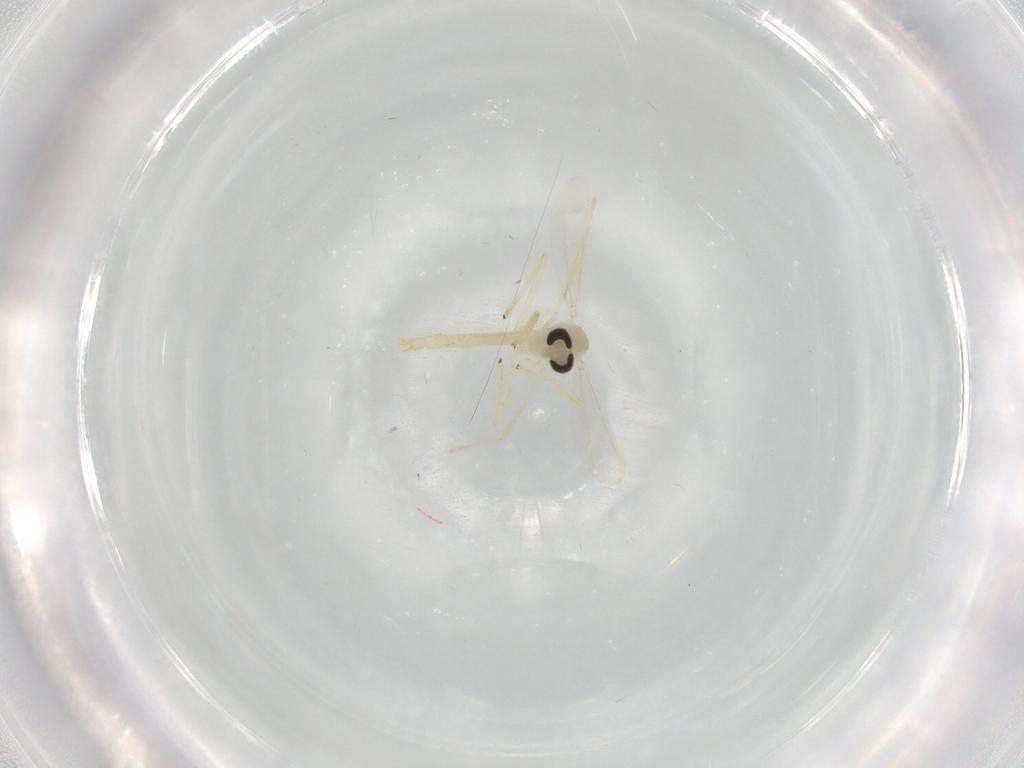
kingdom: Animalia
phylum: Arthropoda
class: Insecta
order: Diptera
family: Chironomidae
